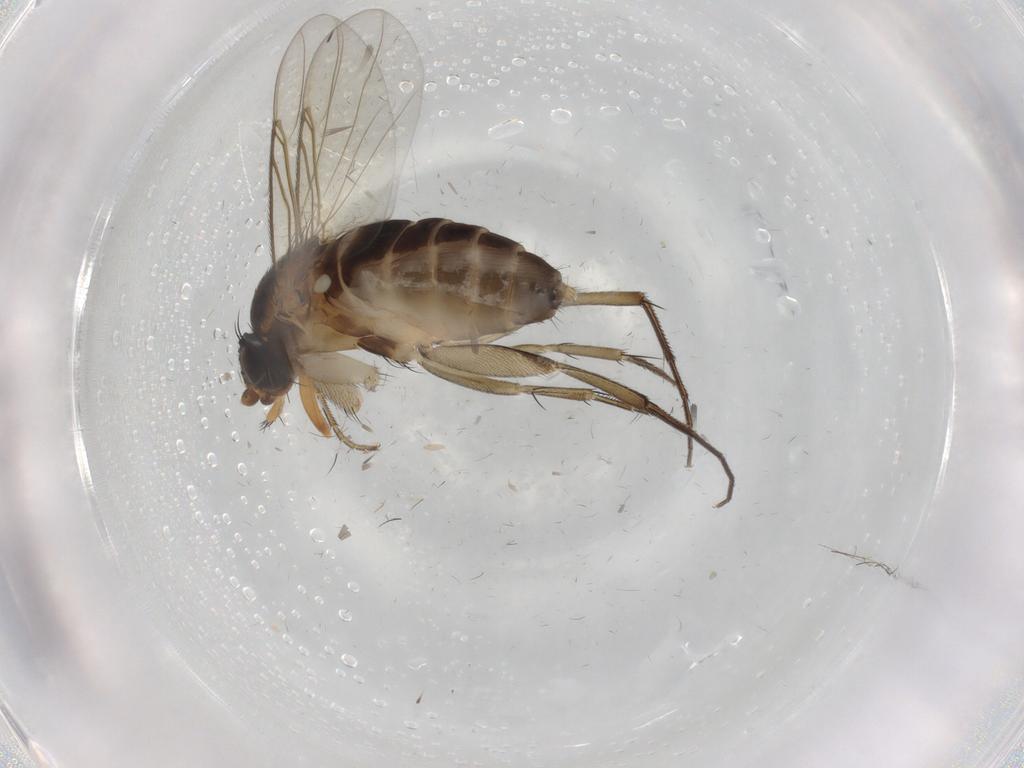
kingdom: Animalia
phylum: Arthropoda
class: Insecta
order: Diptera
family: Phoridae
